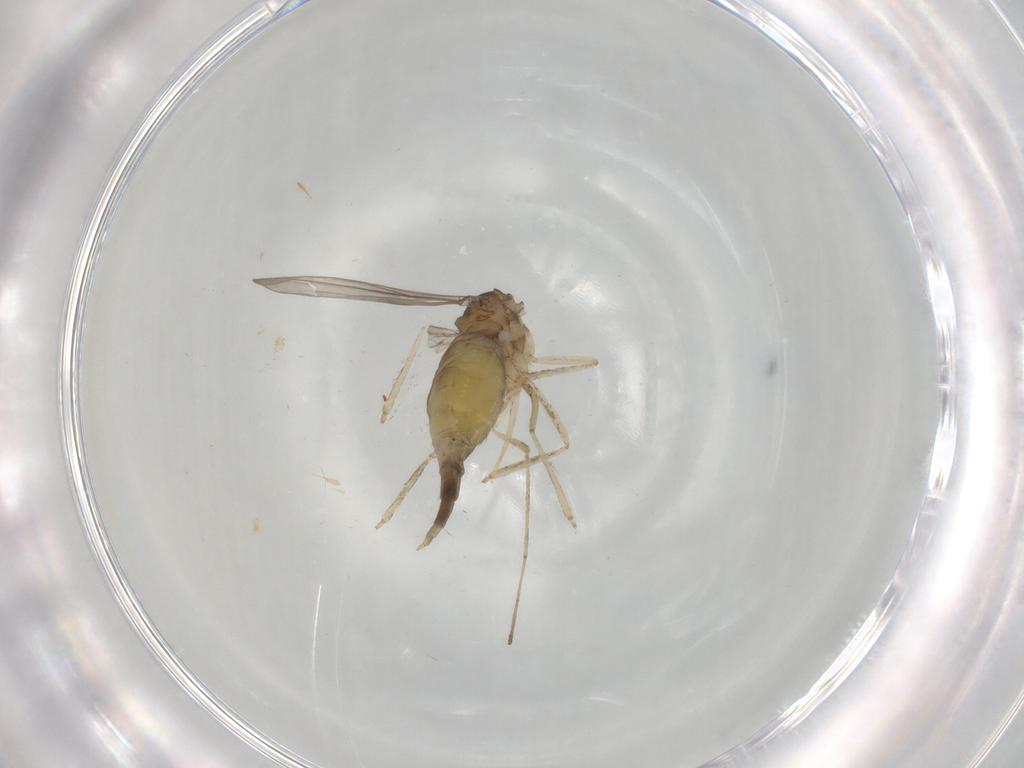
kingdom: Animalia
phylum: Arthropoda
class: Insecta
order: Diptera
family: Cecidomyiidae
